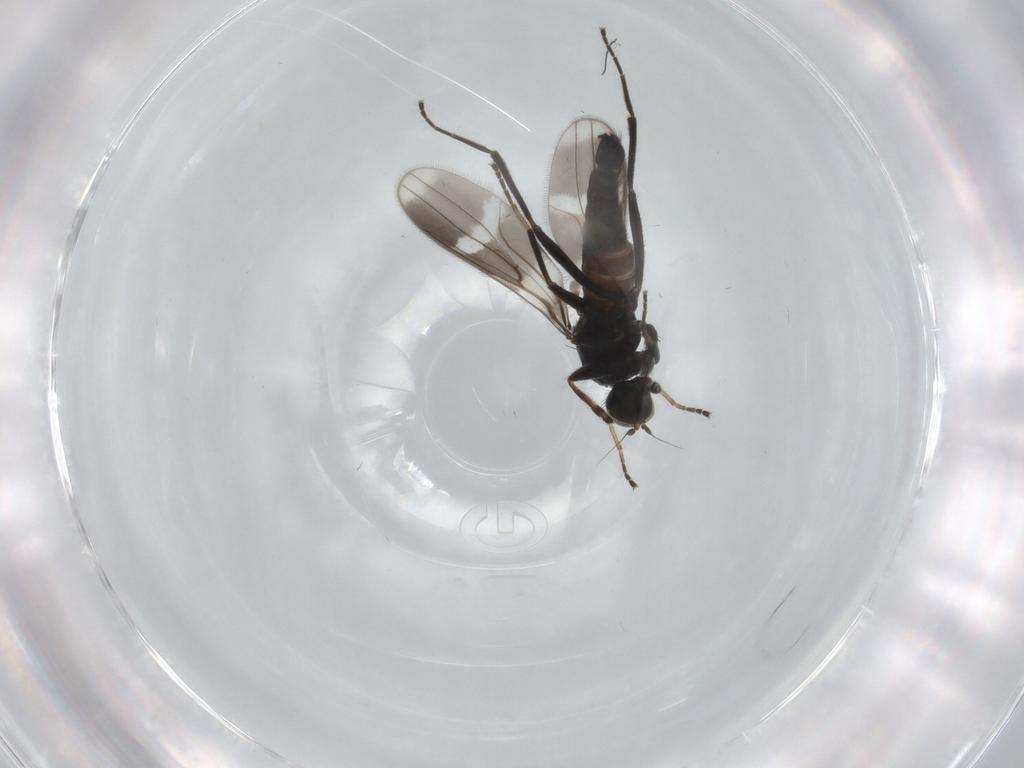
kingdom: Animalia
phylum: Arthropoda
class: Insecta
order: Diptera
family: Hybotidae
